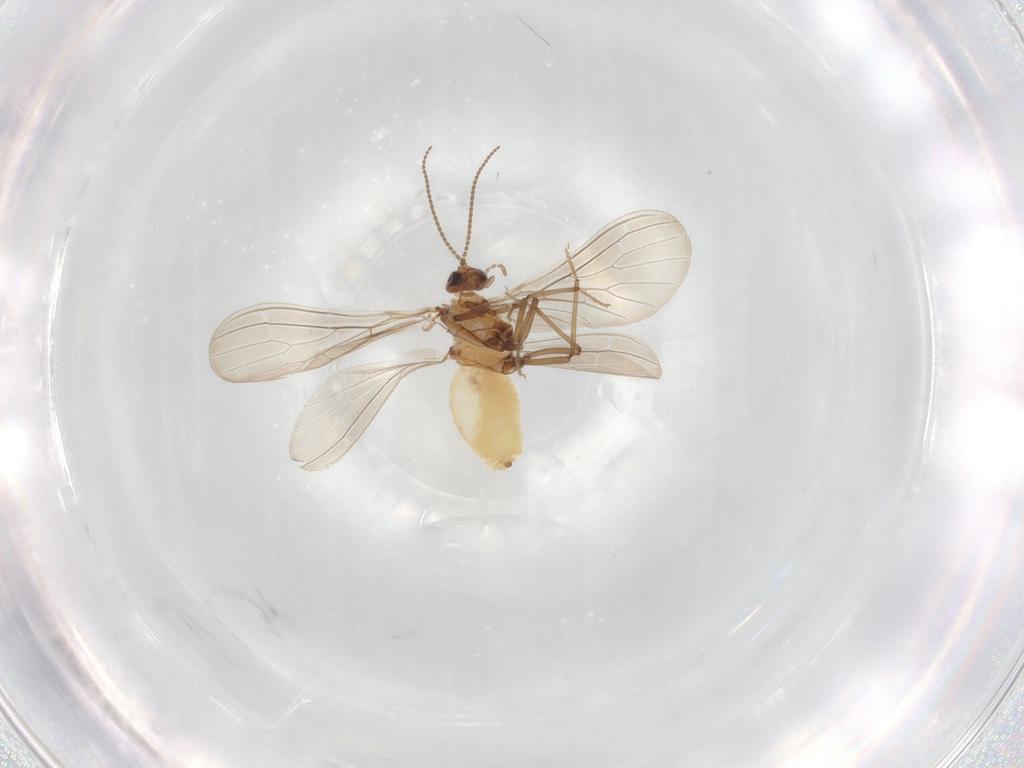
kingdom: Animalia
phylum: Arthropoda
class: Insecta
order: Neuroptera
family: Coniopterygidae
